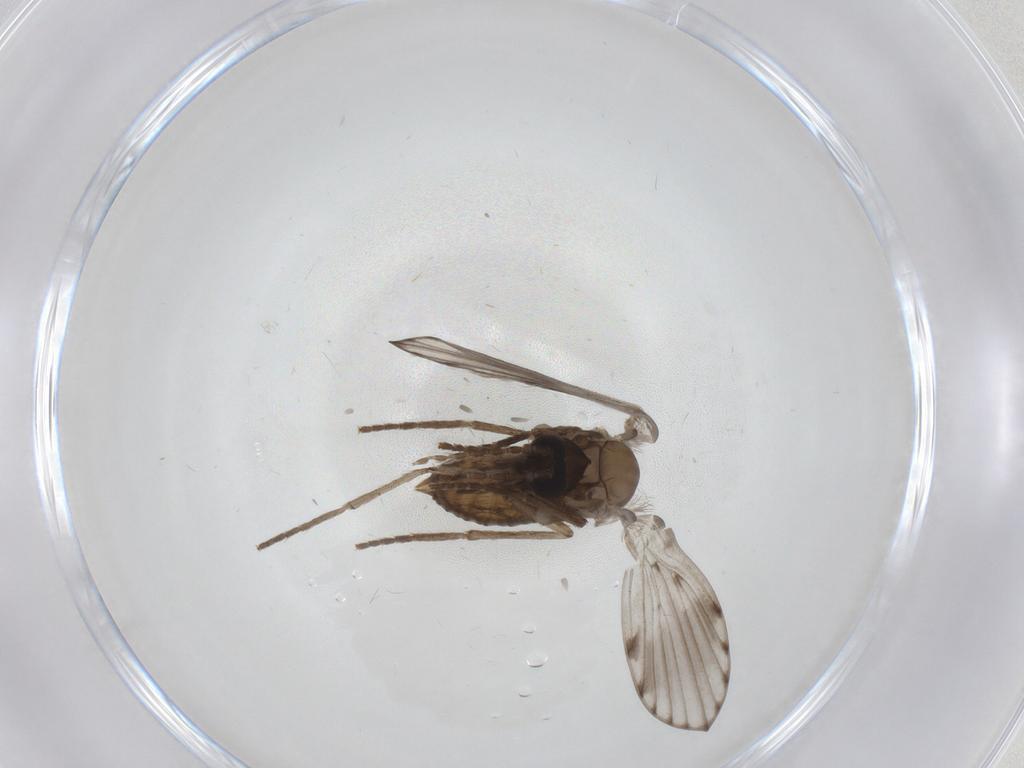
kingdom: Animalia
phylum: Arthropoda
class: Insecta
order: Diptera
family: Psychodidae
